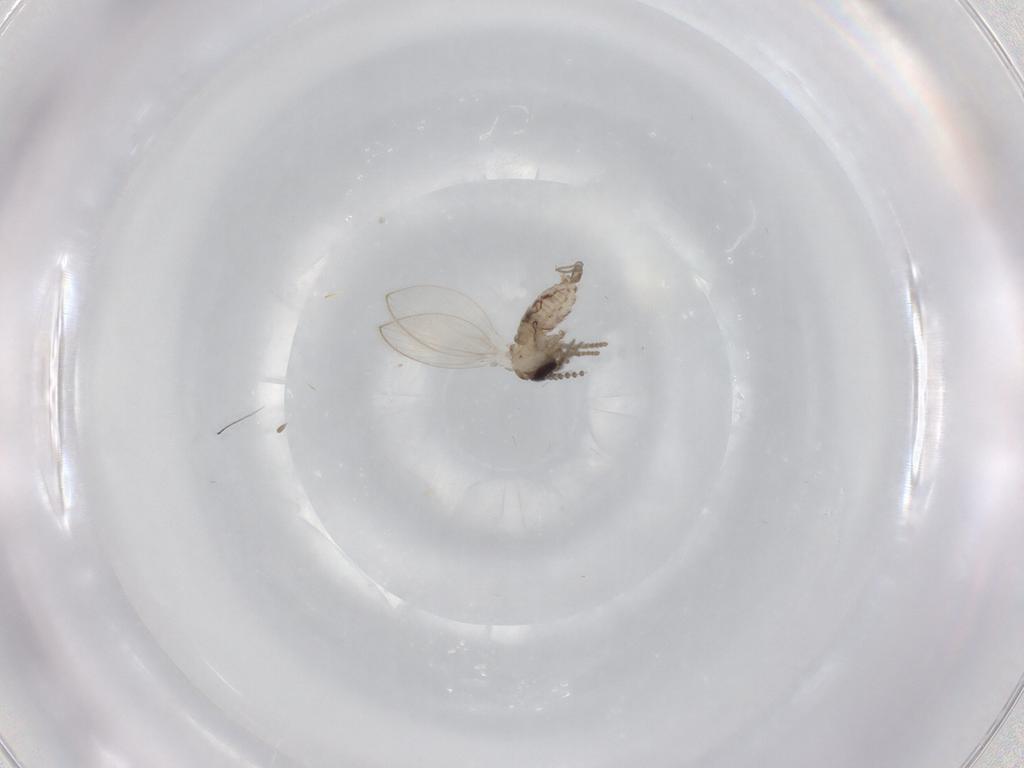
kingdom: Animalia
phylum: Arthropoda
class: Insecta
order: Diptera
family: Psychodidae
